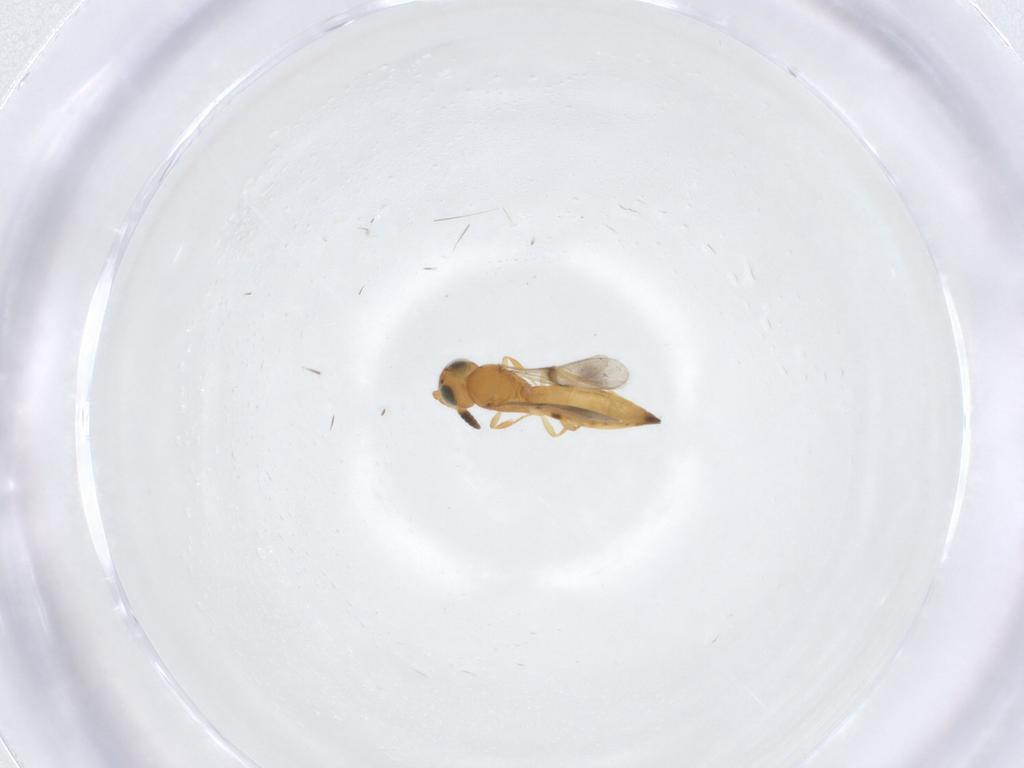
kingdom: Animalia
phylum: Arthropoda
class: Insecta
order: Hymenoptera
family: Scelionidae
